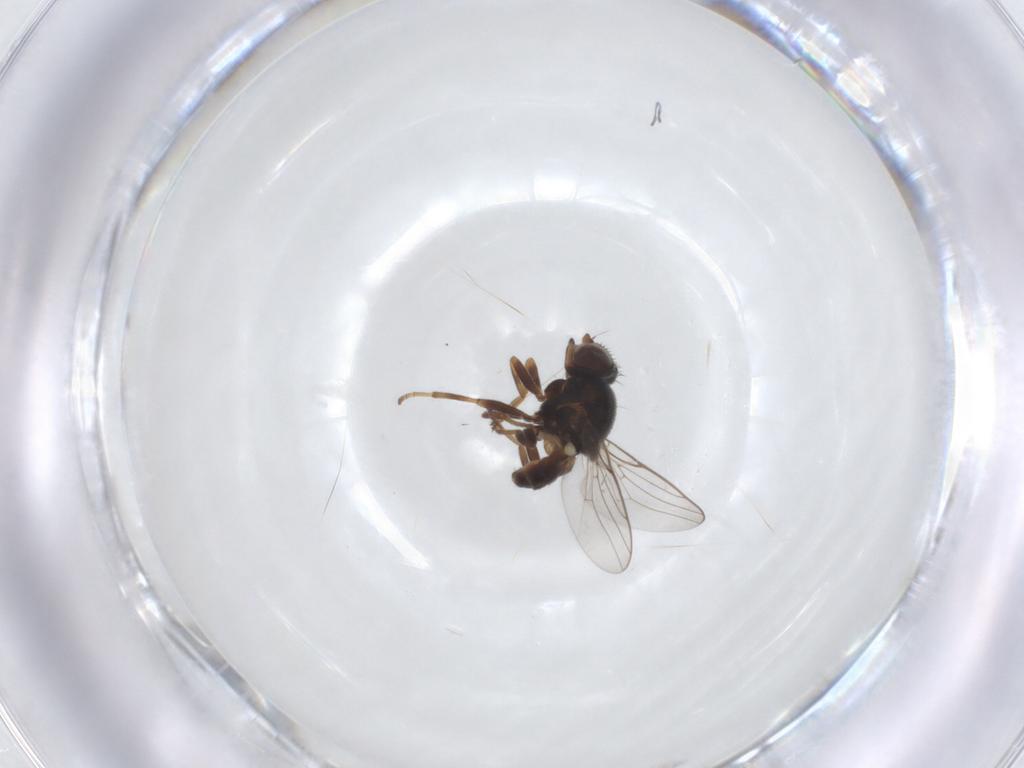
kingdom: Animalia
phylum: Arthropoda
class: Insecta
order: Diptera
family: Chloropidae
